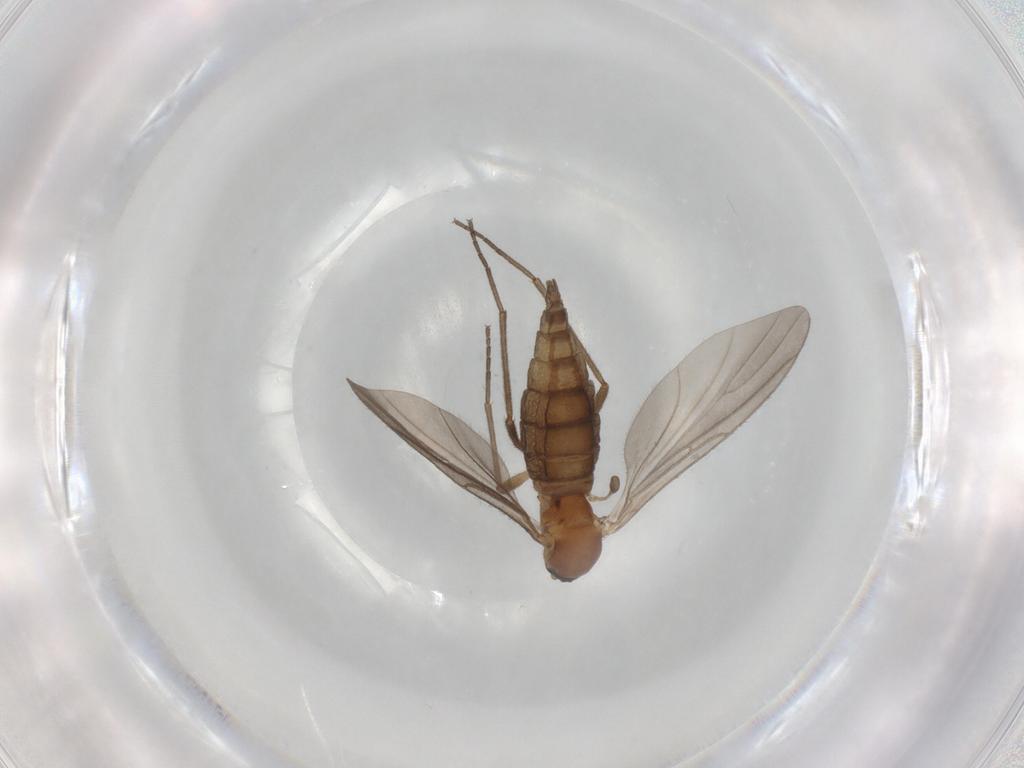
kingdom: Animalia
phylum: Arthropoda
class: Insecta
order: Diptera
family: Sciaridae
